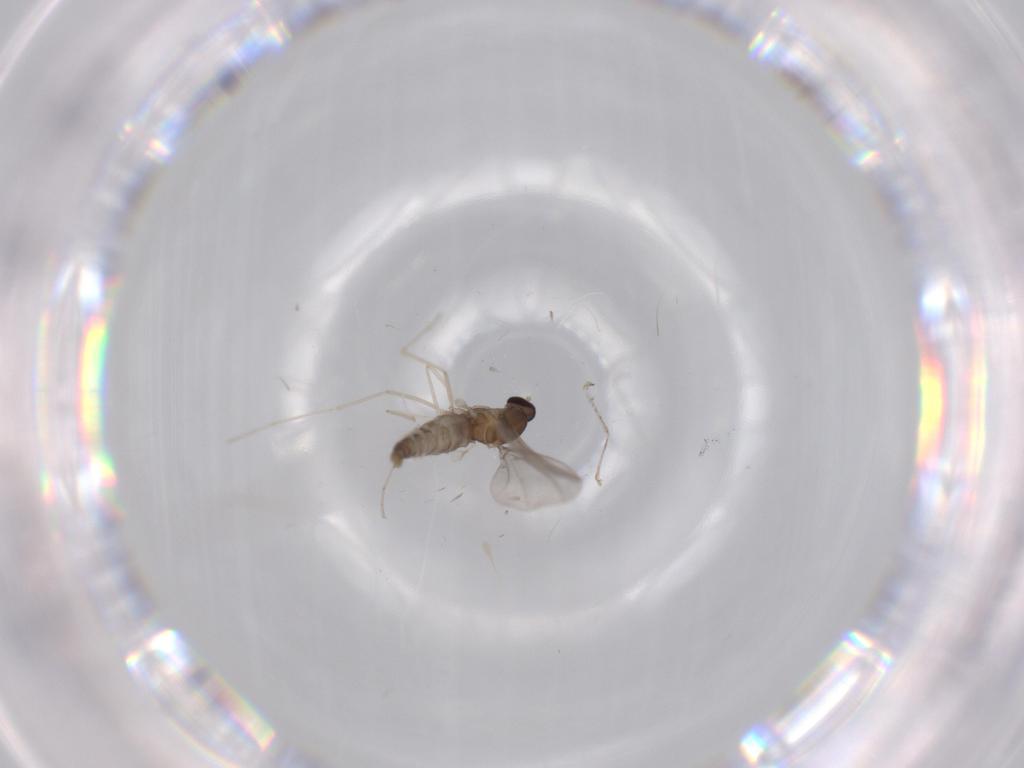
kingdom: Animalia
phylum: Arthropoda
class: Insecta
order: Diptera
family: Cecidomyiidae
